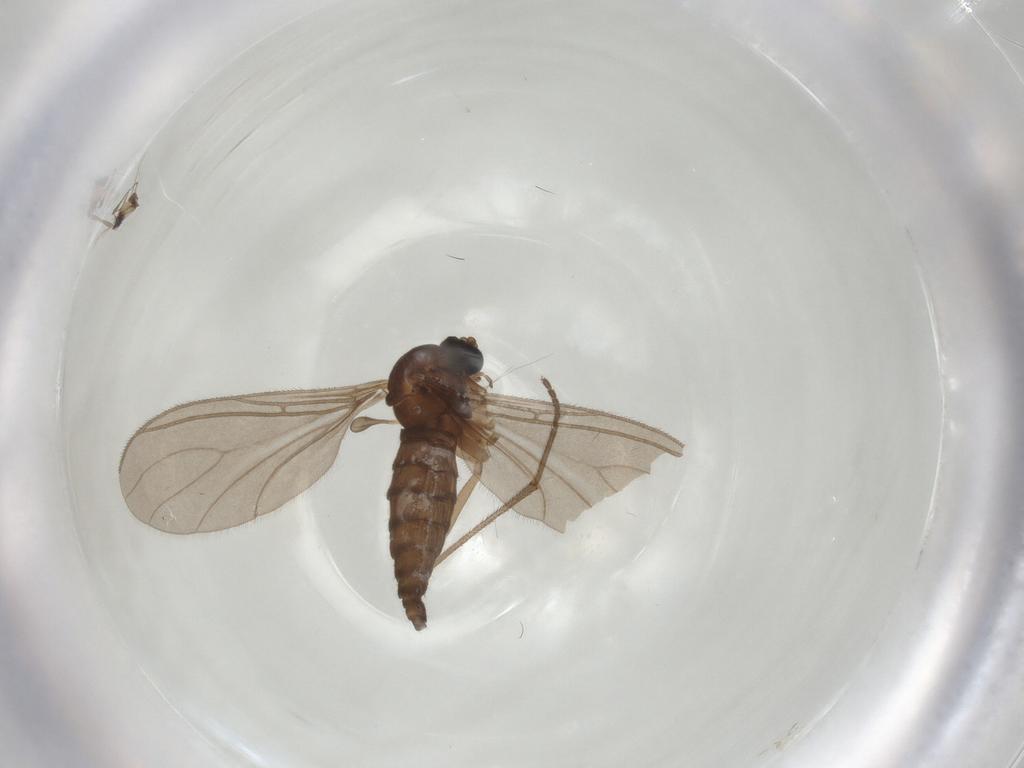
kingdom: Animalia
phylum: Arthropoda
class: Insecta
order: Diptera
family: Sciaridae
